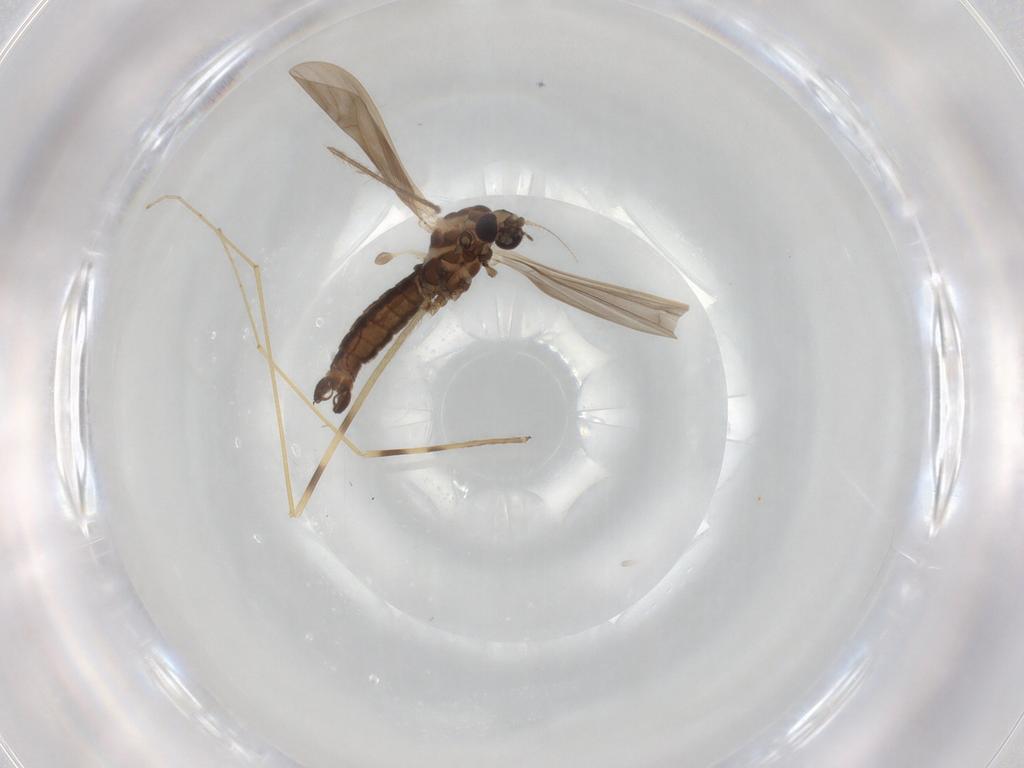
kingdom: Animalia
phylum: Arthropoda
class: Insecta
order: Diptera
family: Limoniidae
